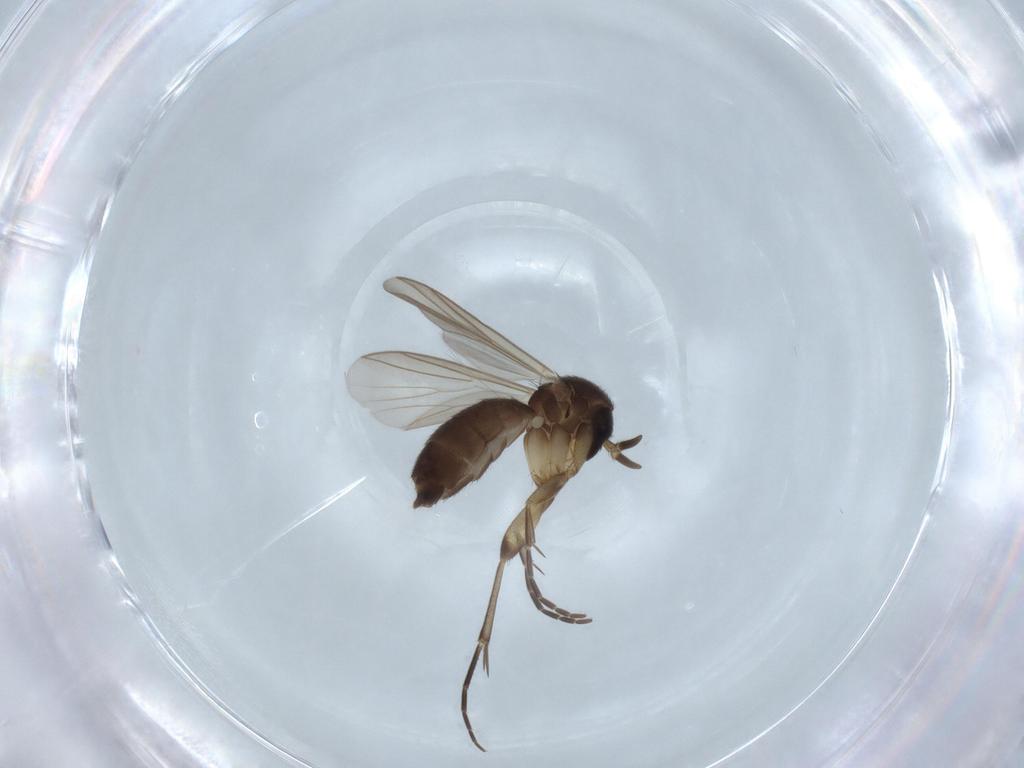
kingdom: Animalia
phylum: Arthropoda
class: Insecta
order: Diptera
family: Mycetophilidae
